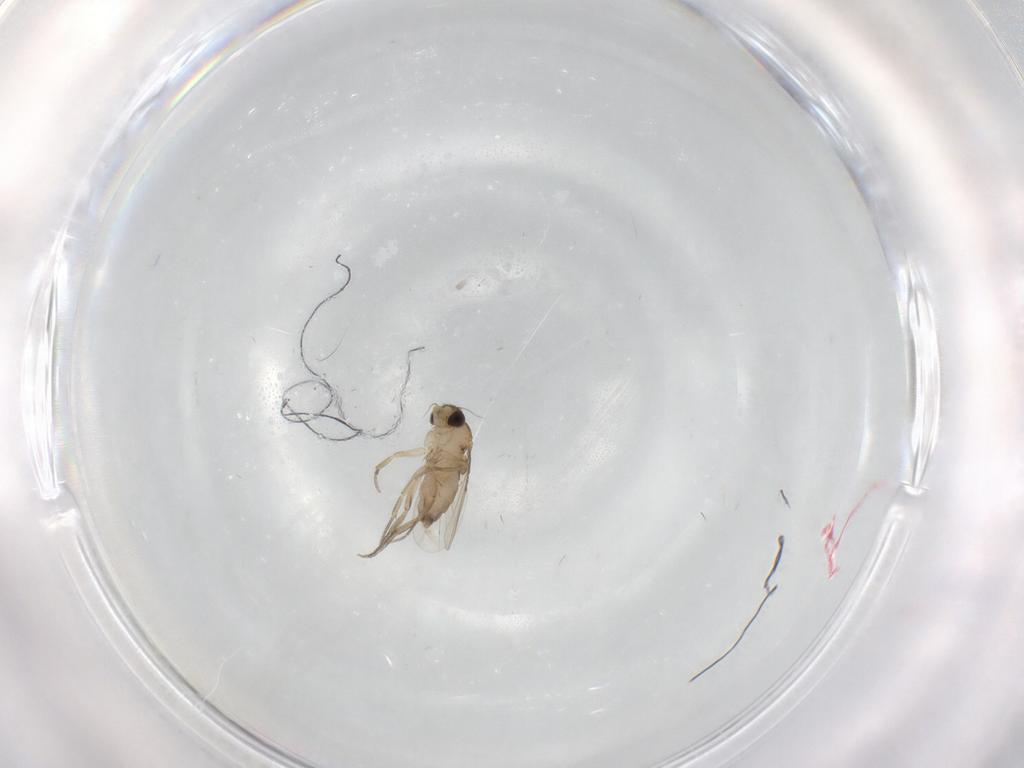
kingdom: Animalia
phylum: Arthropoda
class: Insecta
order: Diptera
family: Phoridae
